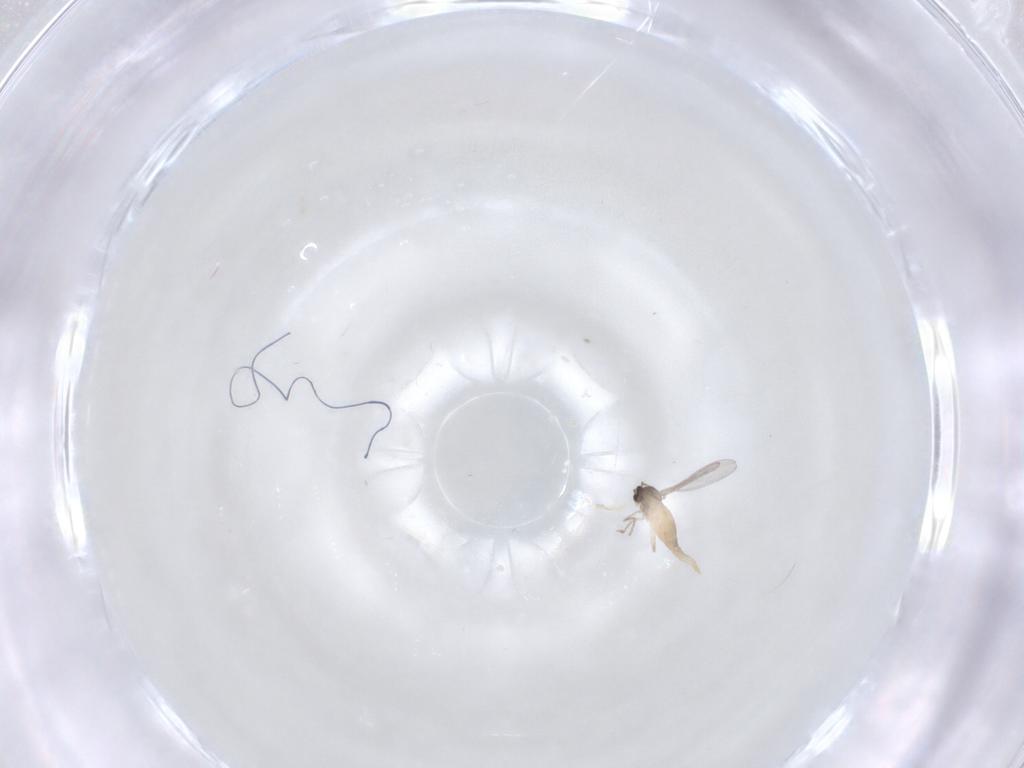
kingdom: Animalia
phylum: Arthropoda
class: Insecta
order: Diptera
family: Cecidomyiidae
